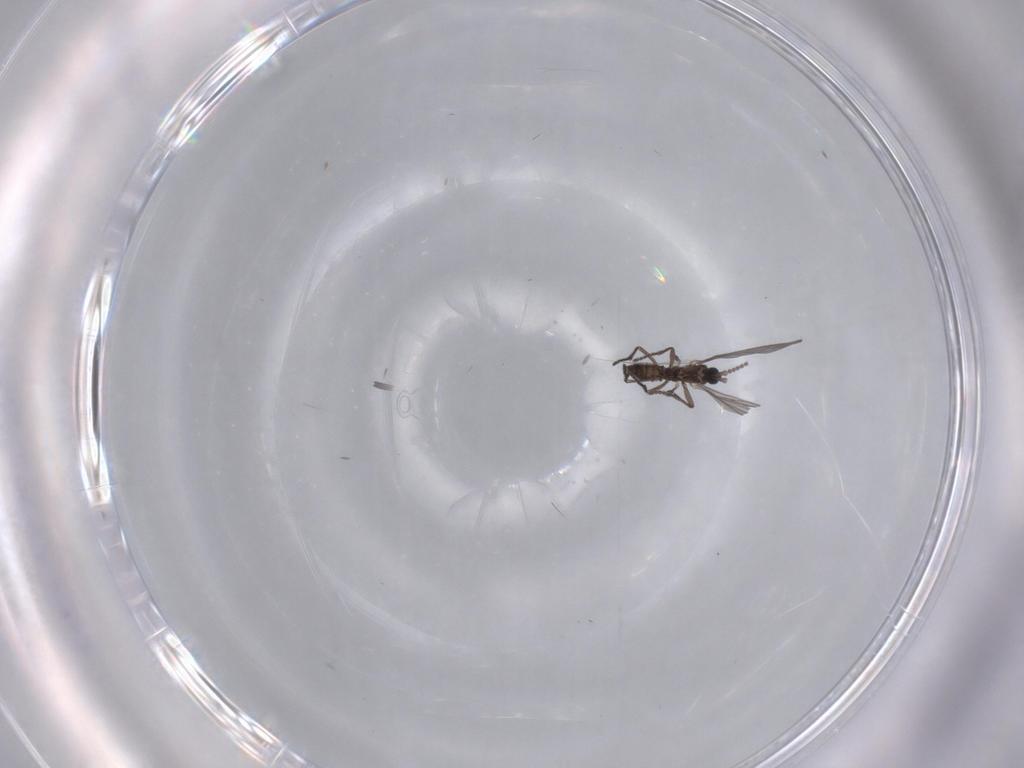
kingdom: Animalia
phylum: Arthropoda
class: Insecta
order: Diptera
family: Syrphidae
